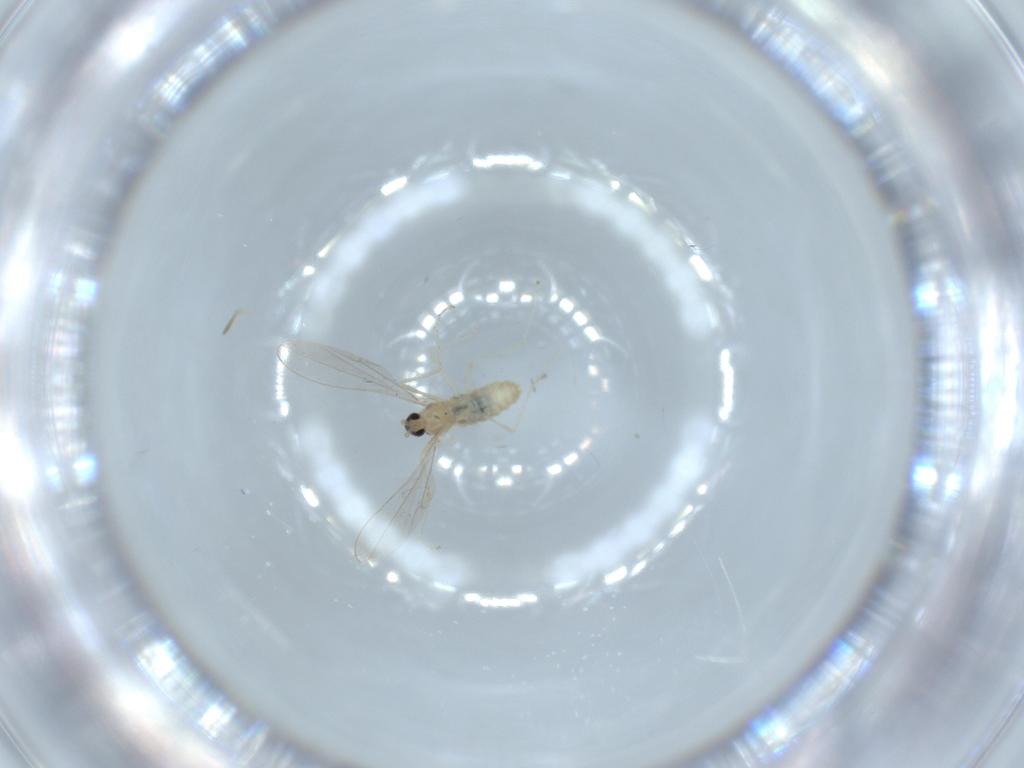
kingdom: Animalia
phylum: Arthropoda
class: Insecta
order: Diptera
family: Cecidomyiidae
